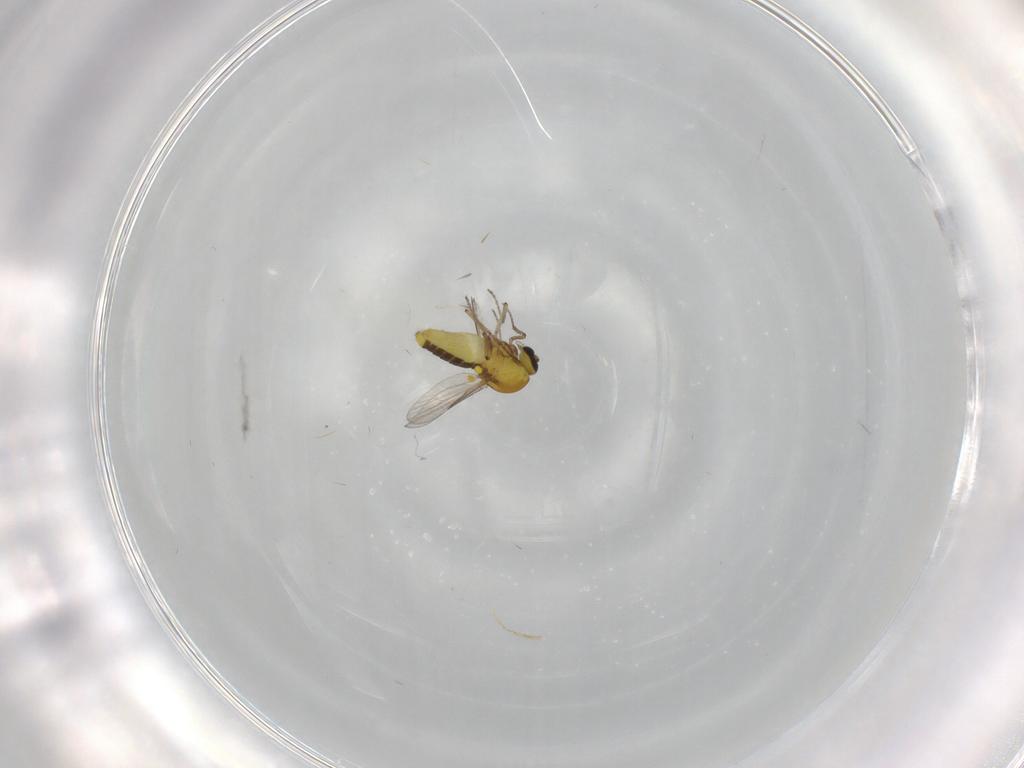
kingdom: Animalia
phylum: Arthropoda
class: Insecta
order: Diptera
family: Ceratopogonidae
